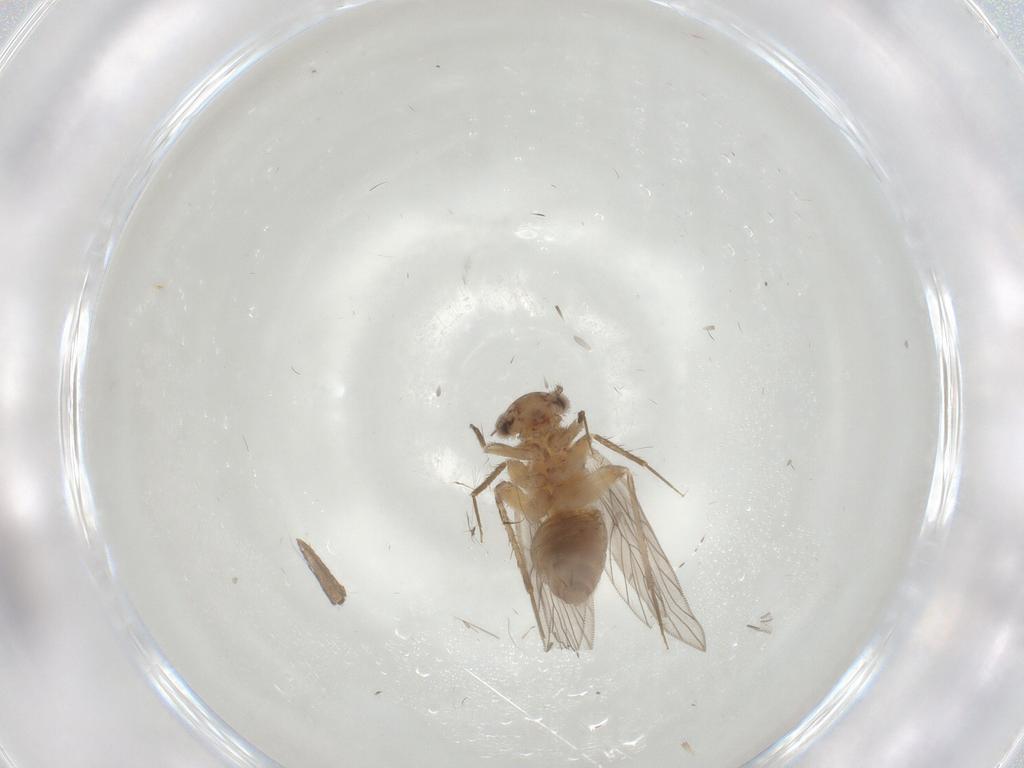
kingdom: Animalia
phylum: Arthropoda
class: Insecta
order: Psocodea
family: Lepidopsocidae
